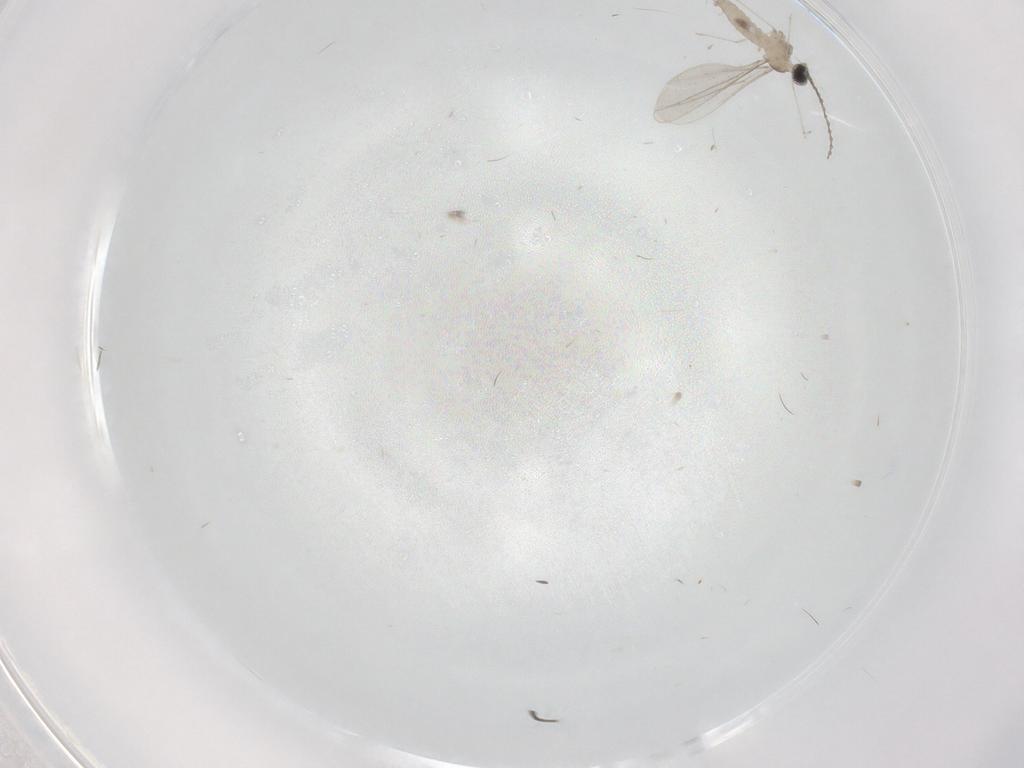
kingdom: Animalia
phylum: Arthropoda
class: Insecta
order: Diptera
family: Cecidomyiidae
